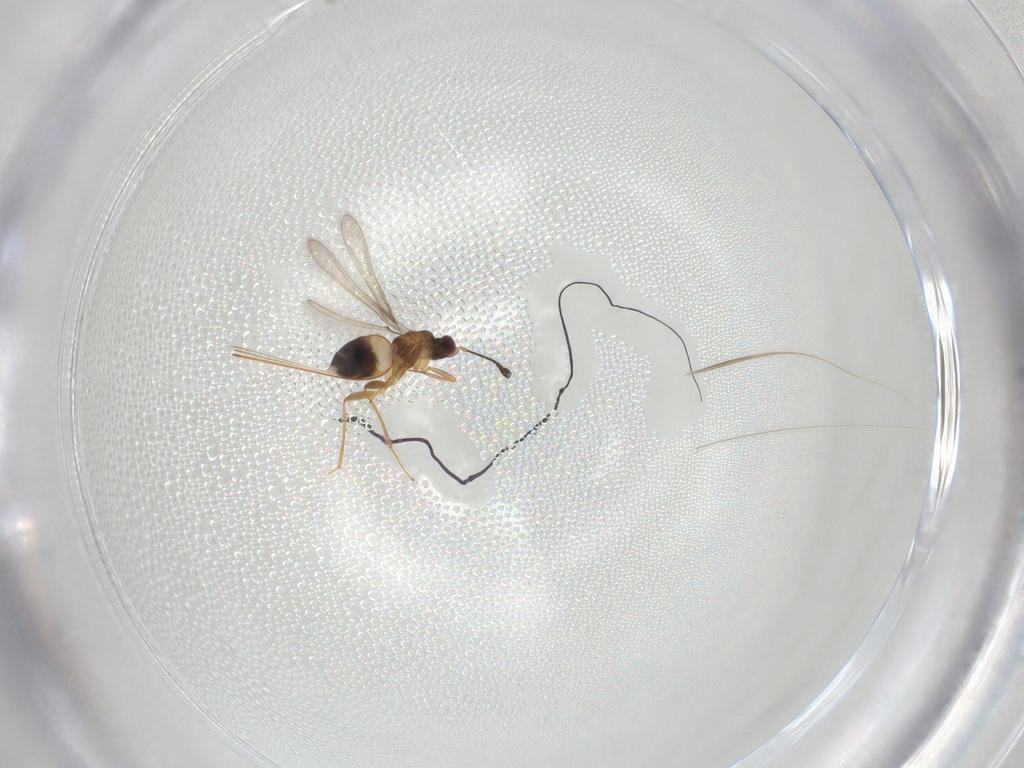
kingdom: Animalia
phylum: Arthropoda
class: Insecta
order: Hymenoptera
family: Mymaridae
